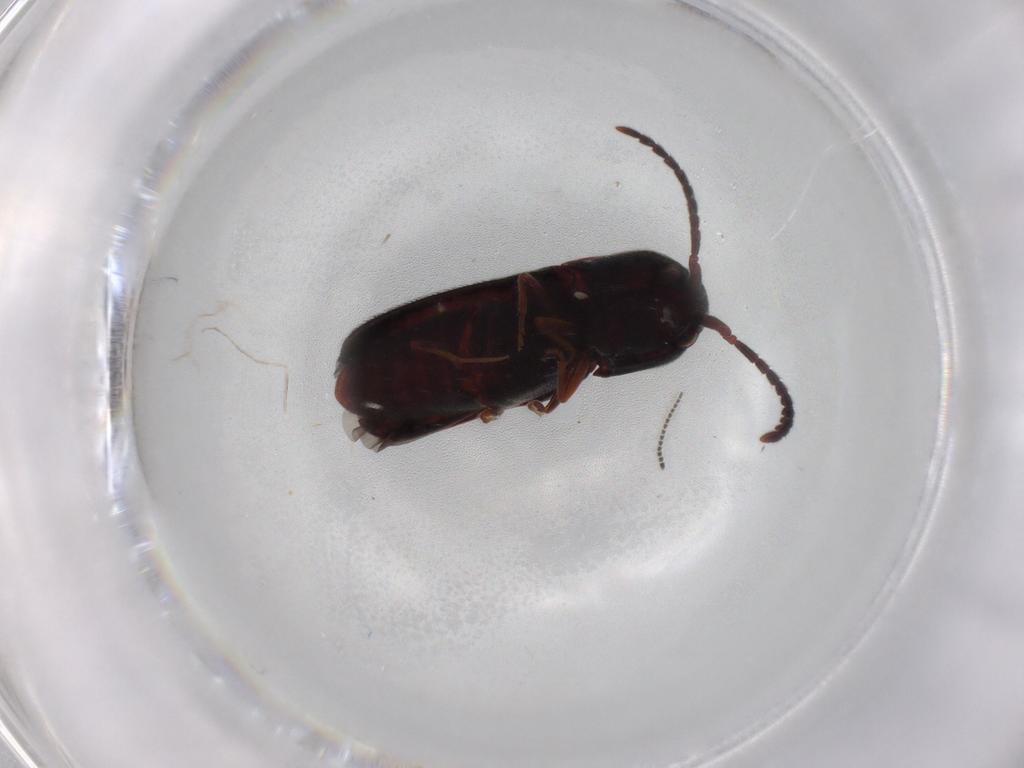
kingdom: Animalia
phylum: Arthropoda
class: Insecta
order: Coleoptera
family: Eucnemidae
